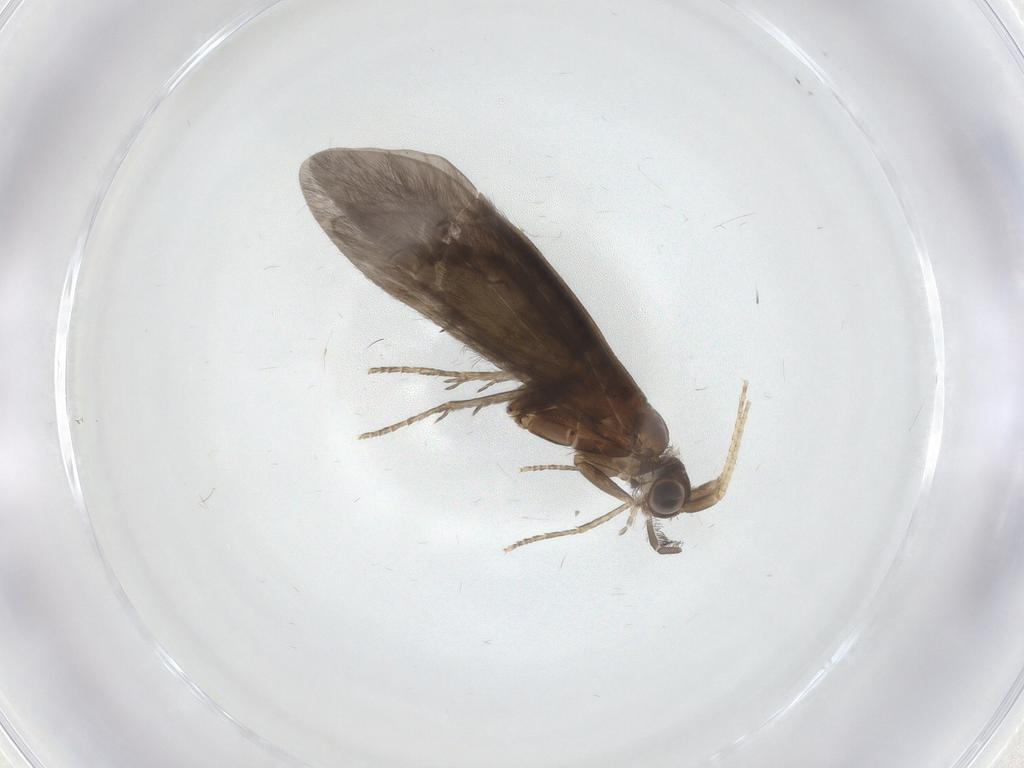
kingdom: Animalia
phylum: Arthropoda
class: Insecta
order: Trichoptera
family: Helicopsychidae
